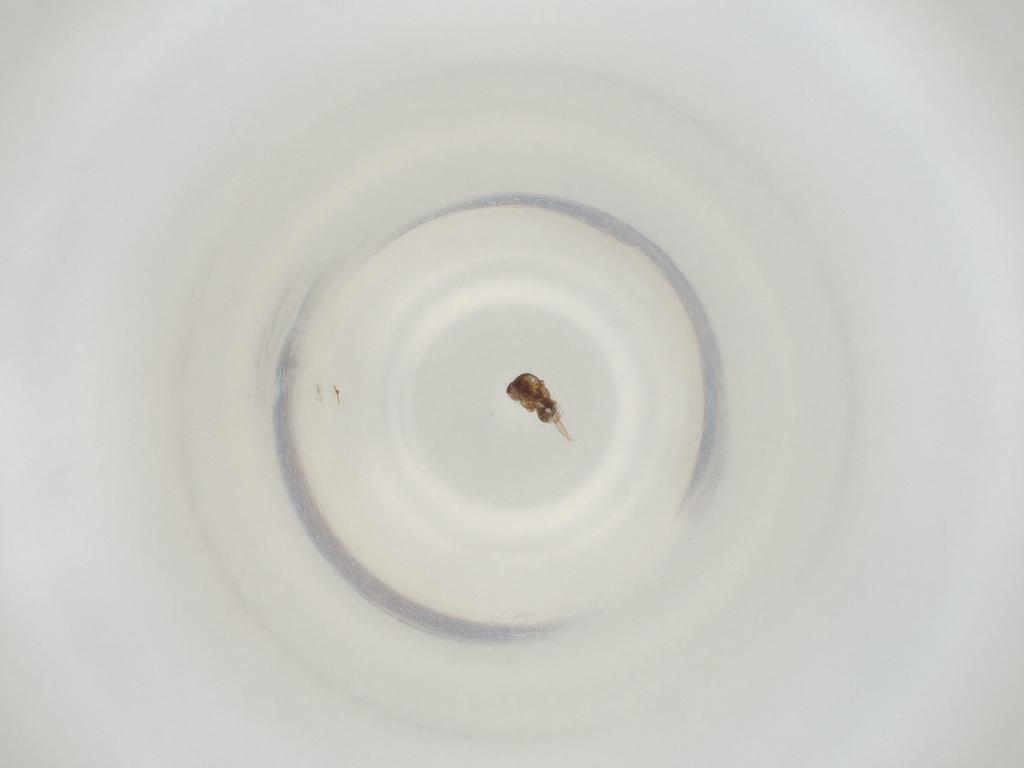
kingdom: Animalia
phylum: Arthropoda
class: Insecta
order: Diptera
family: Cecidomyiidae
